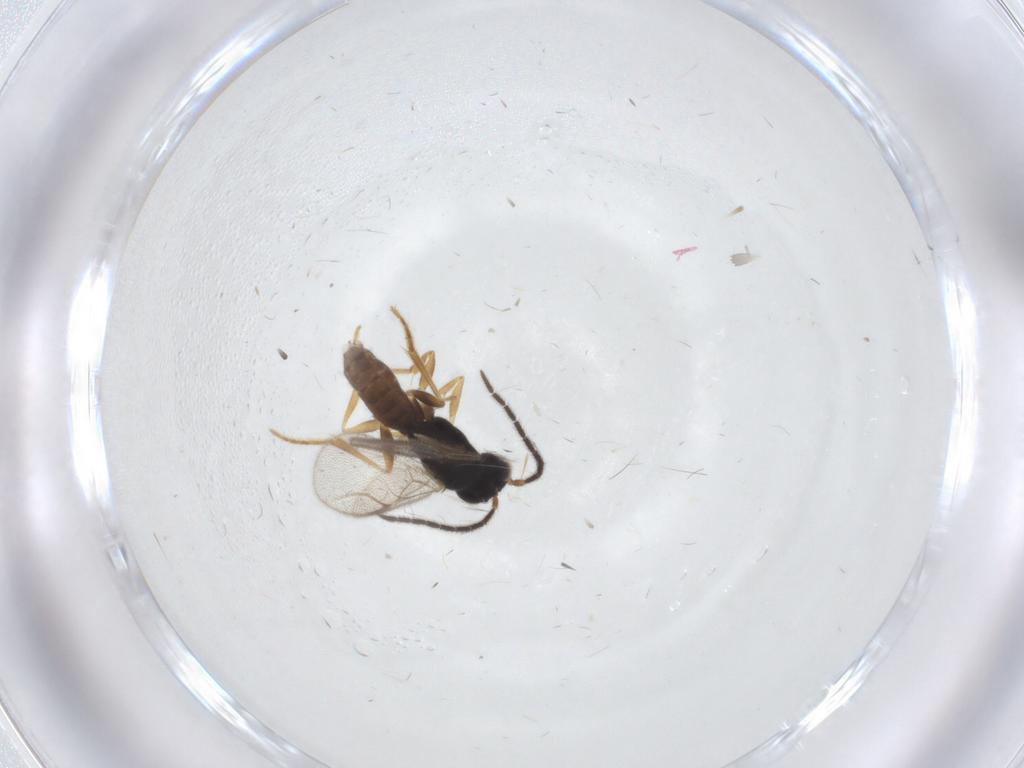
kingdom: Animalia
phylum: Arthropoda
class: Insecta
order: Hymenoptera
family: Dryinidae
